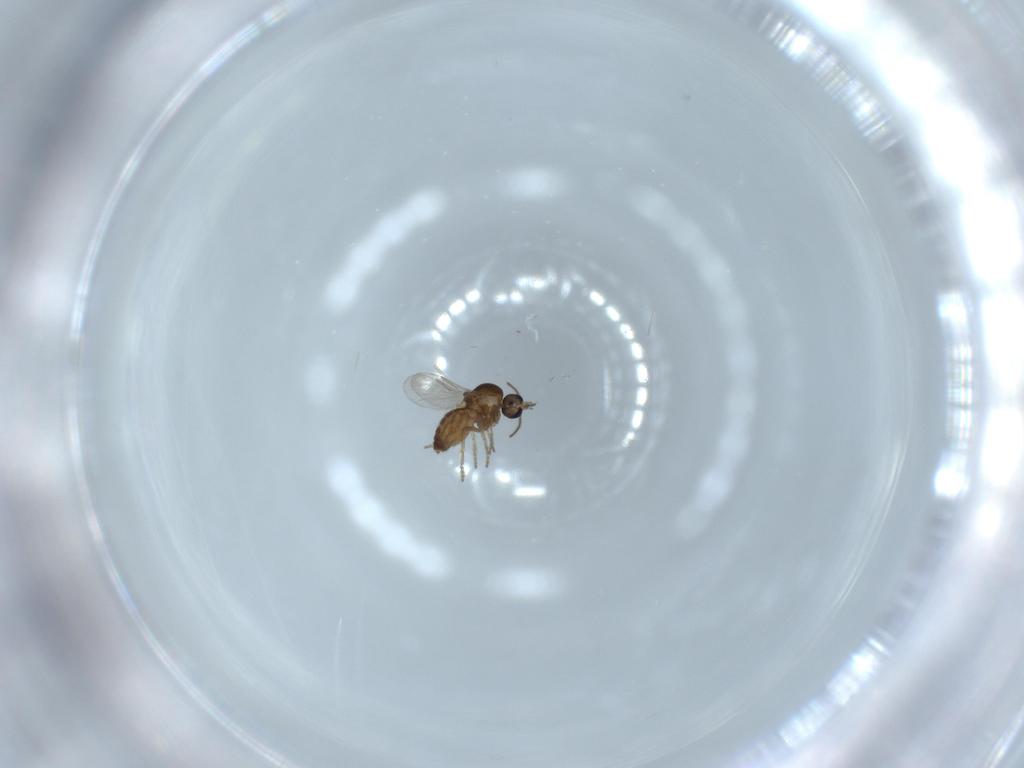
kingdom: Animalia
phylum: Arthropoda
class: Insecta
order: Diptera
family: Ceratopogonidae
